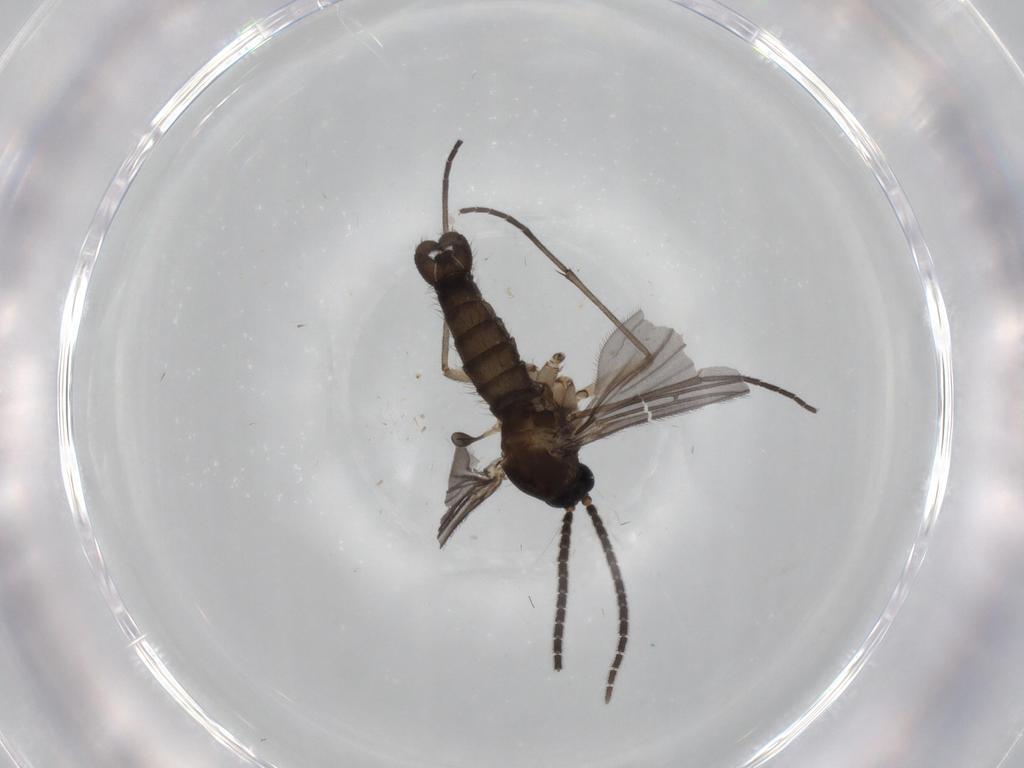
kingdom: Animalia
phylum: Arthropoda
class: Insecta
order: Diptera
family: Sciaridae
